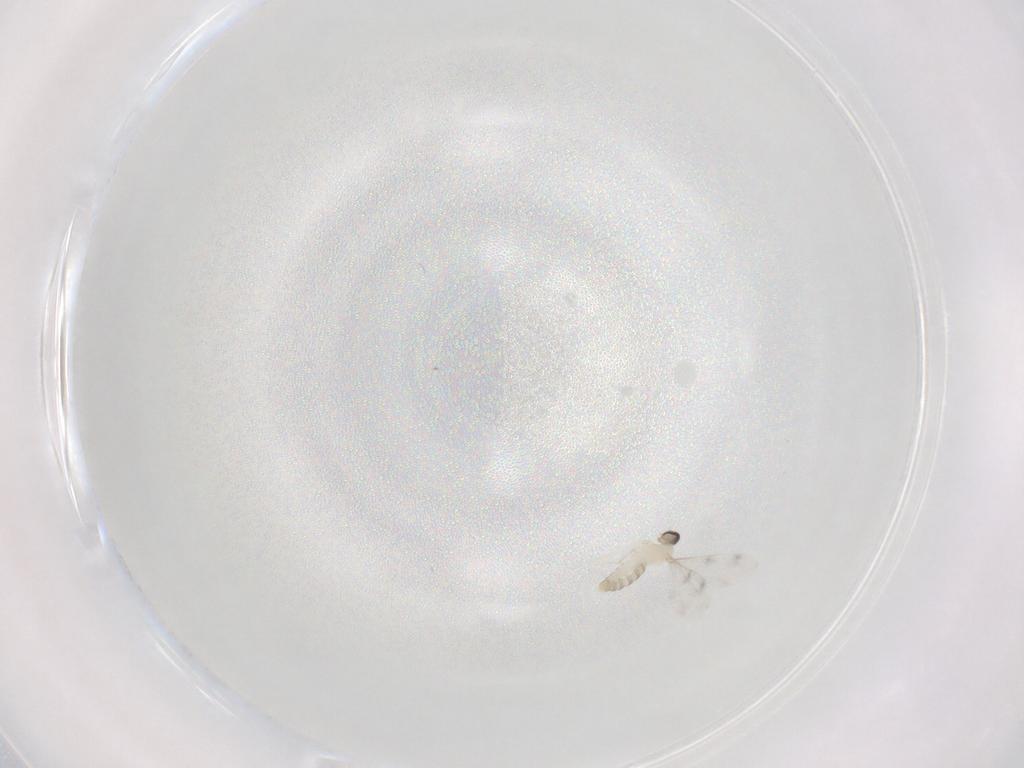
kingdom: Animalia
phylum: Arthropoda
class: Insecta
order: Diptera
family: Cecidomyiidae
